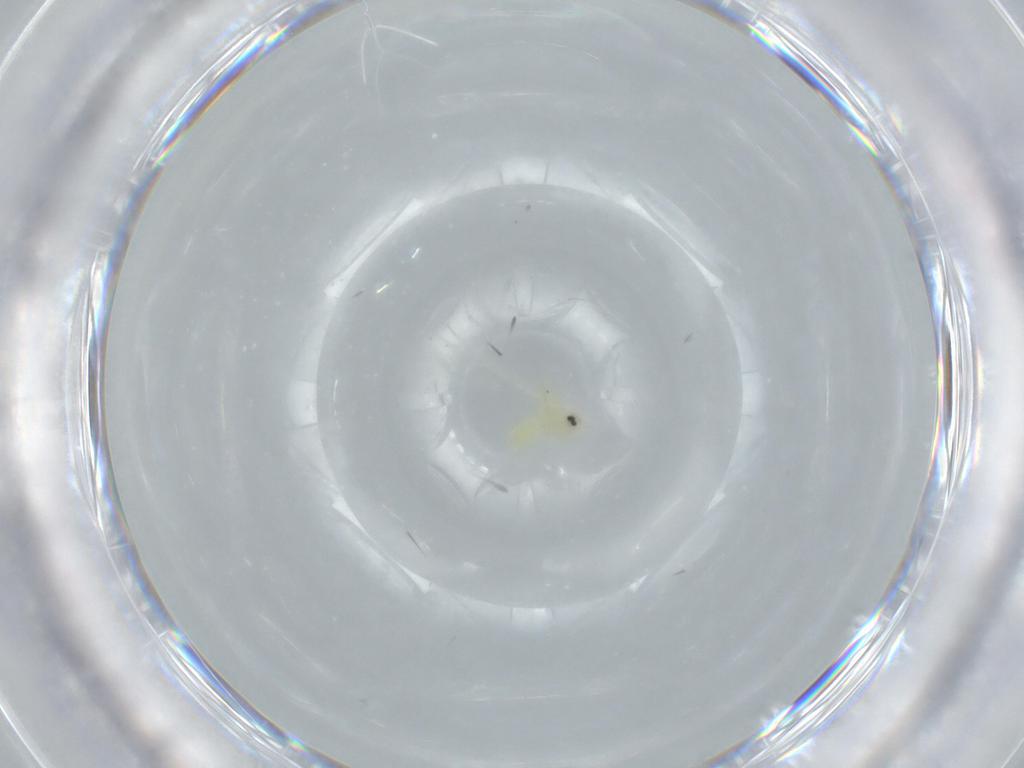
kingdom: Animalia
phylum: Arthropoda
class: Insecta
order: Hemiptera
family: Aleyrodidae
